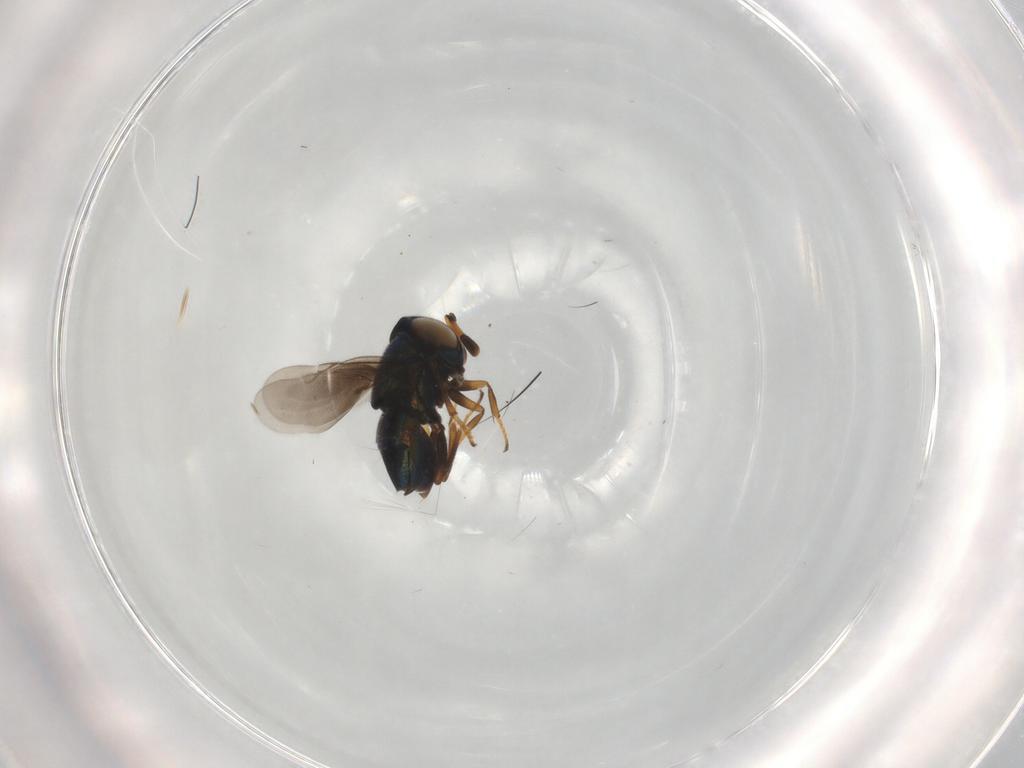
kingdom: Animalia
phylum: Arthropoda
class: Insecta
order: Hymenoptera
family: Encyrtidae
